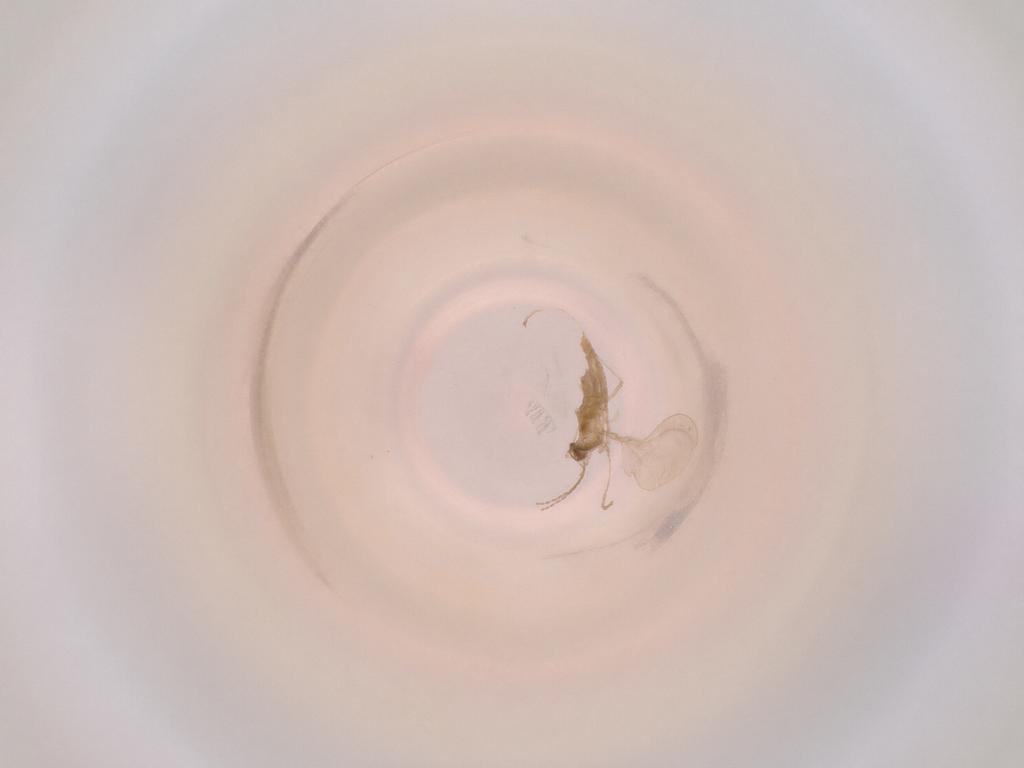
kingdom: Animalia
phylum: Arthropoda
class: Insecta
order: Diptera
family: Cecidomyiidae
